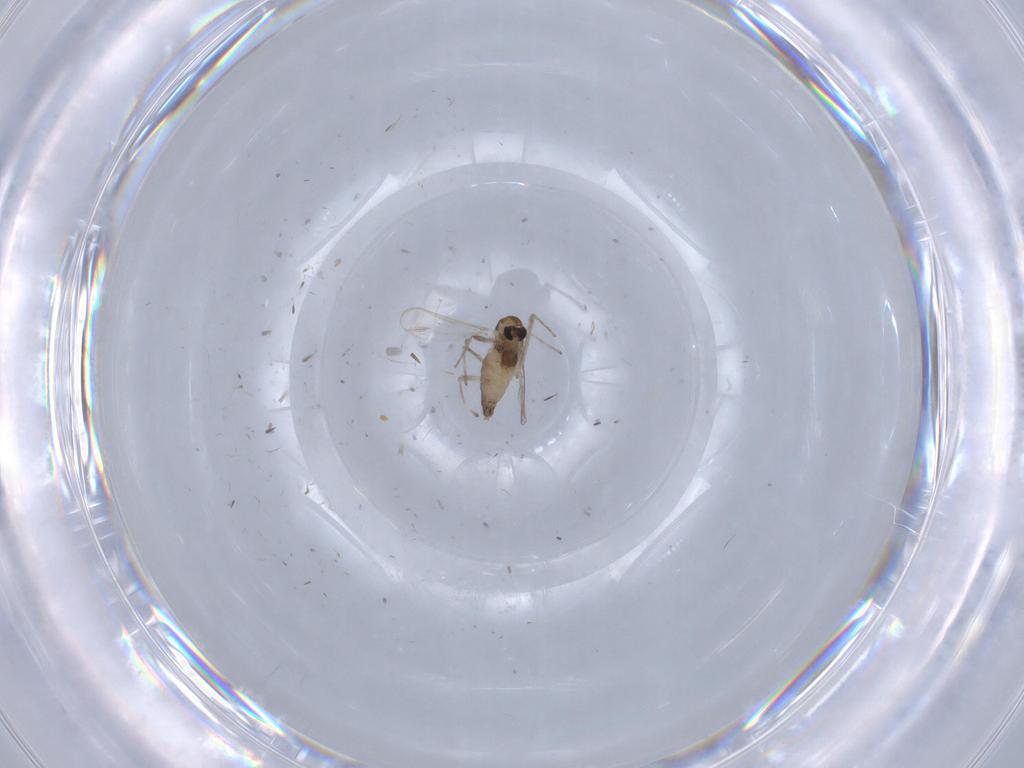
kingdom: Animalia
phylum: Arthropoda
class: Insecta
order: Diptera
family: Chironomidae
